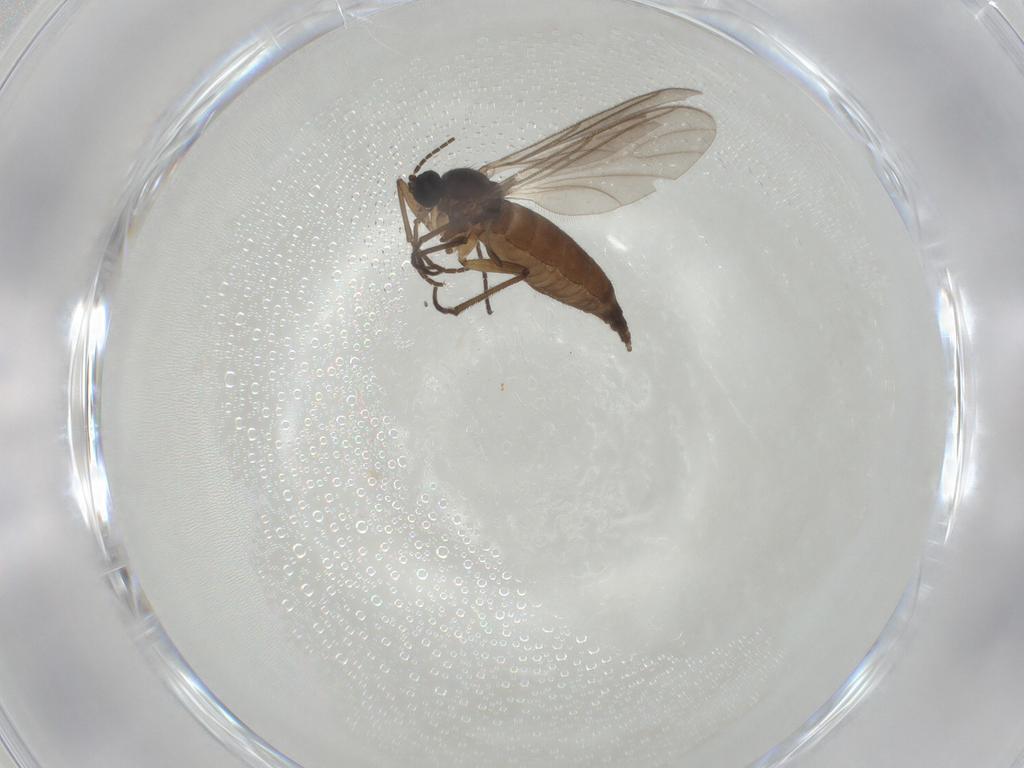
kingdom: Animalia
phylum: Arthropoda
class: Insecta
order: Diptera
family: Sciaridae
